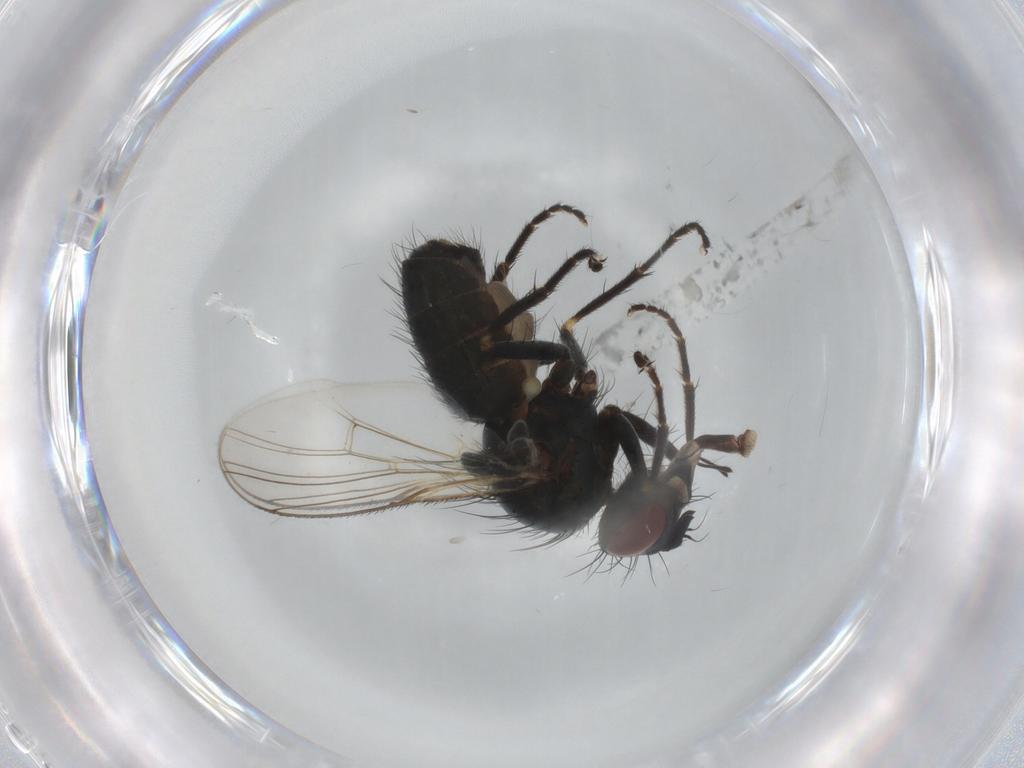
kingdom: Animalia
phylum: Arthropoda
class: Insecta
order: Diptera
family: Muscidae
